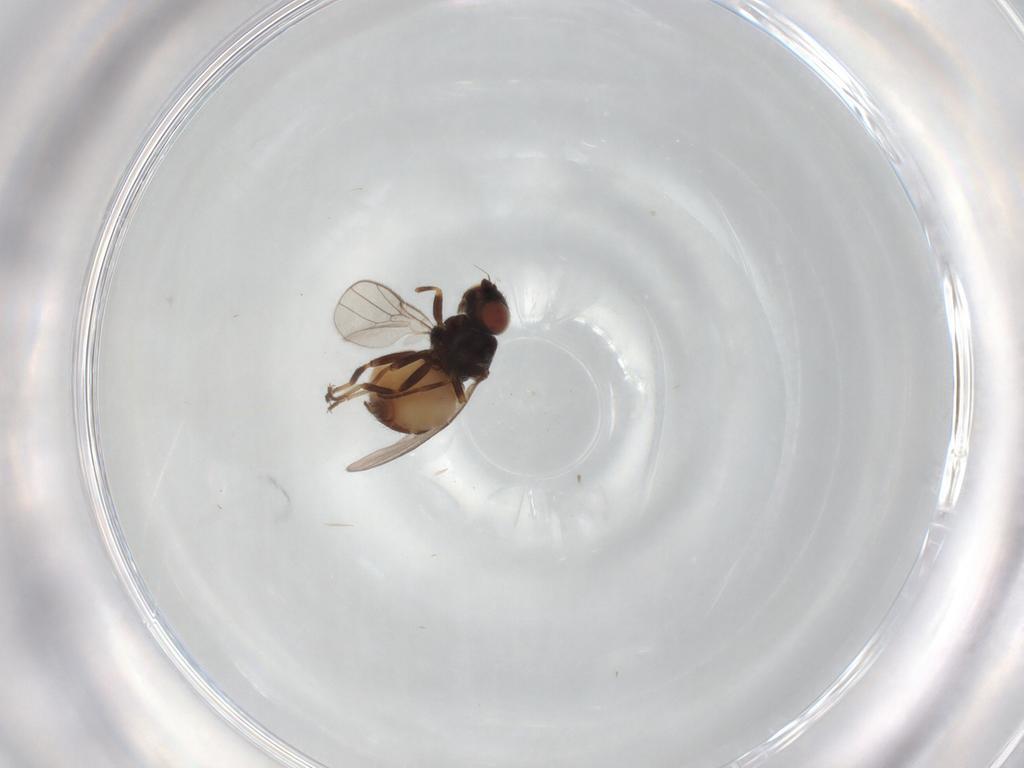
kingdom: Animalia
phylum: Arthropoda
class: Insecta
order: Diptera
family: Chloropidae
